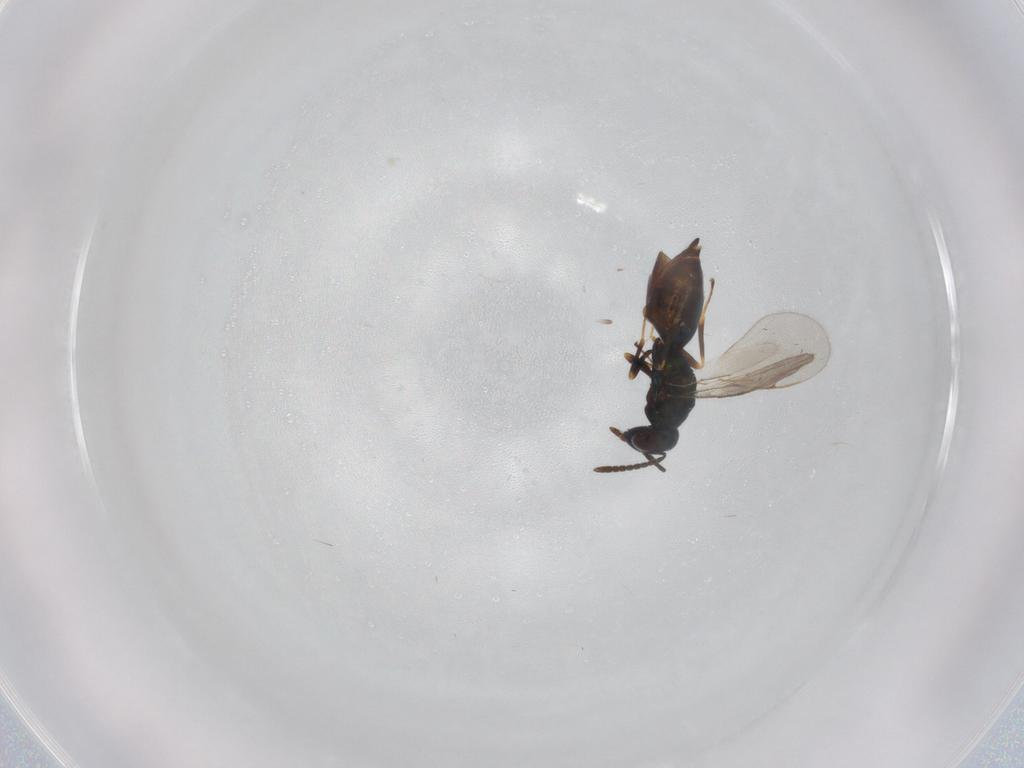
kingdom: Animalia
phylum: Arthropoda
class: Insecta
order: Hymenoptera
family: Pteromalidae
